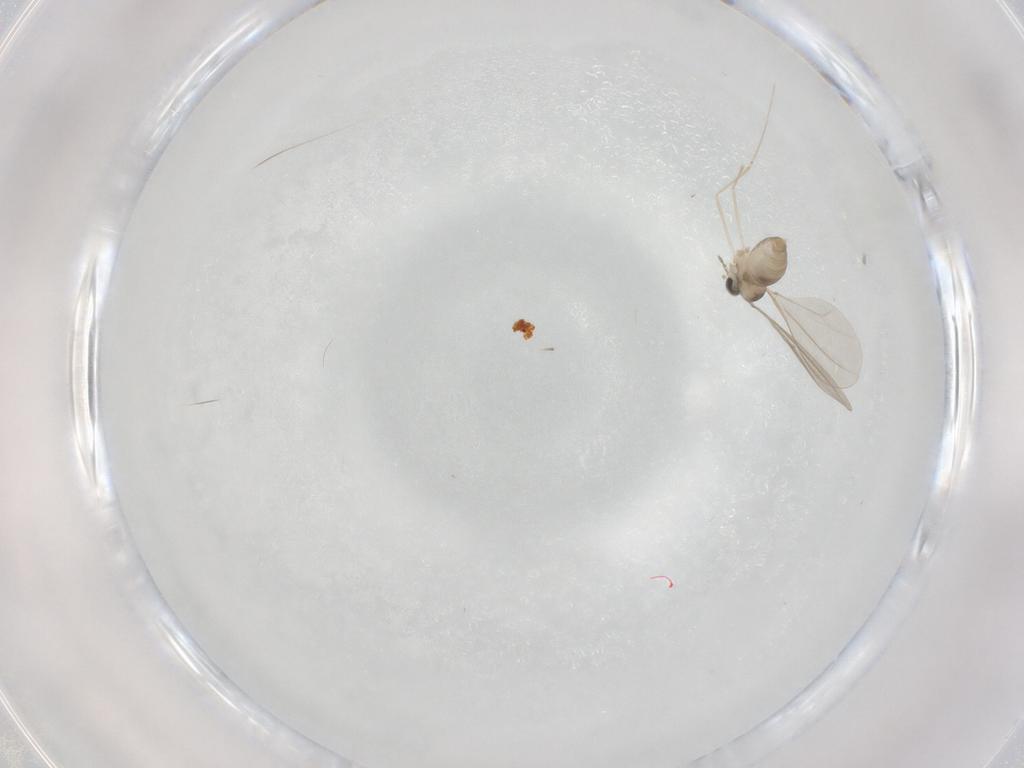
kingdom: Animalia
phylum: Arthropoda
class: Insecta
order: Diptera
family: Cecidomyiidae
